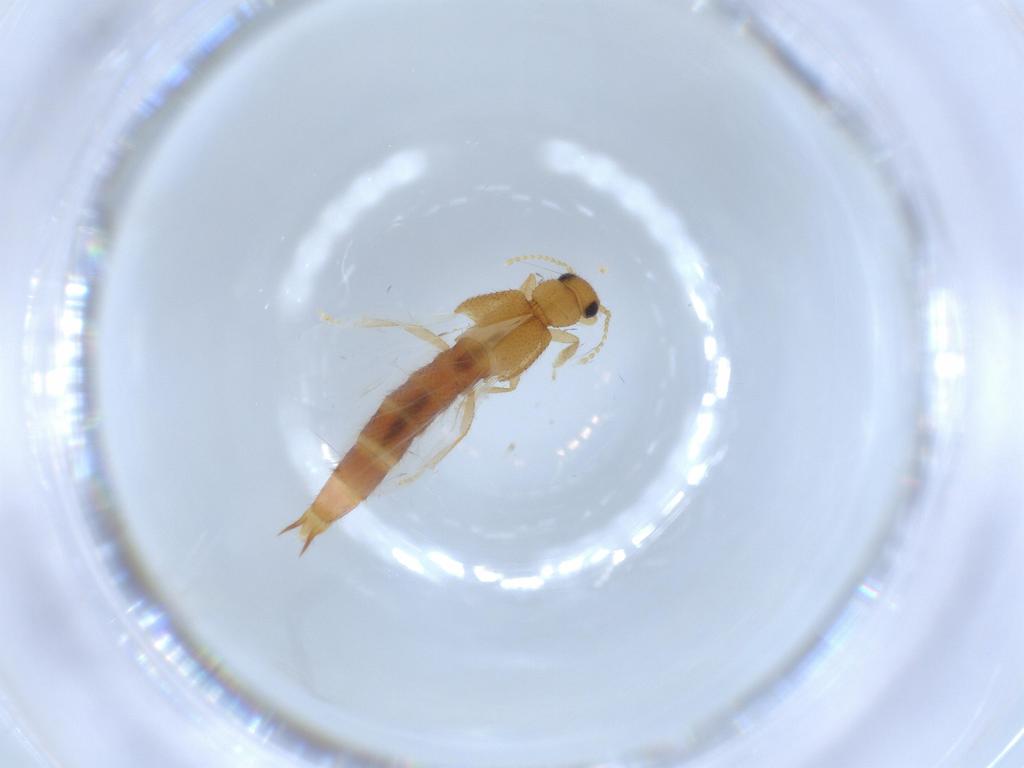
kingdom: Animalia
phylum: Arthropoda
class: Insecta
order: Coleoptera
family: Staphylinidae
